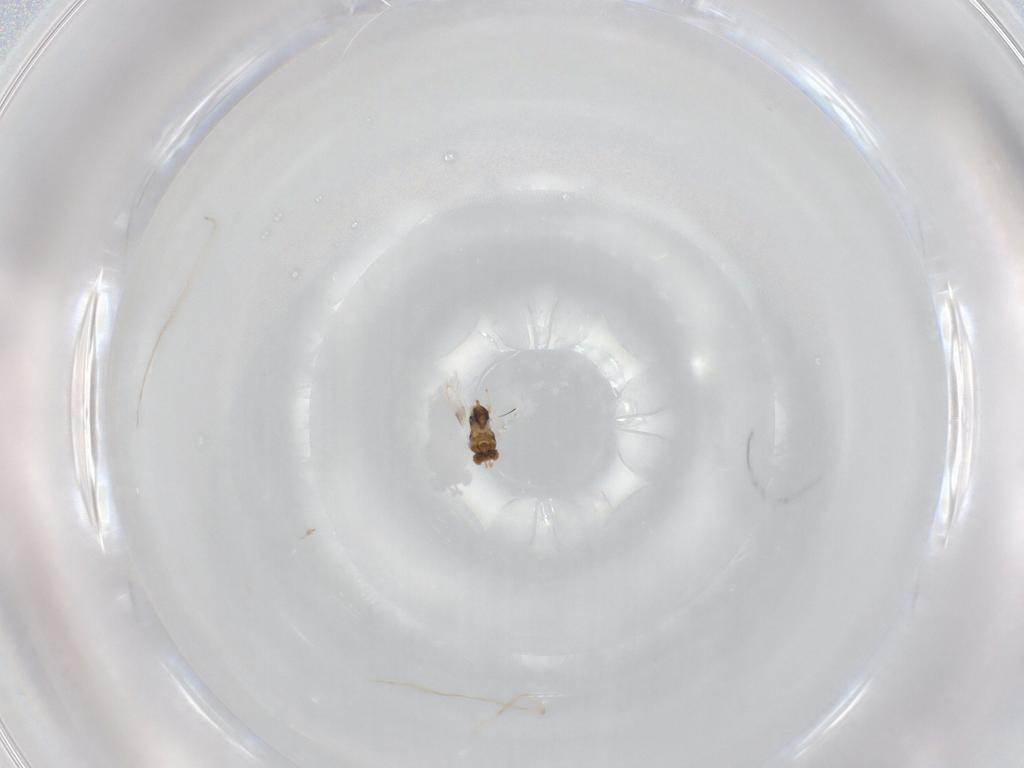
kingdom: Animalia
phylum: Arthropoda
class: Insecta
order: Hymenoptera
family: Aphelinidae
